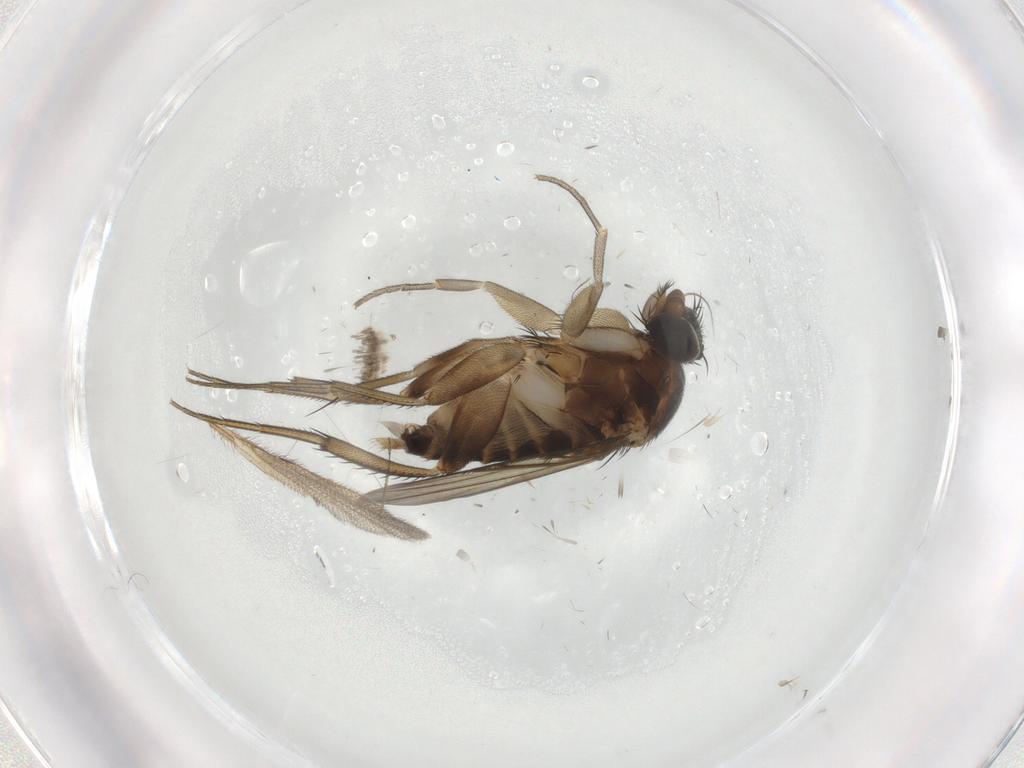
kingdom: Animalia
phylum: Arthropoda
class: Insecta
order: Diptera
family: Phoridae
